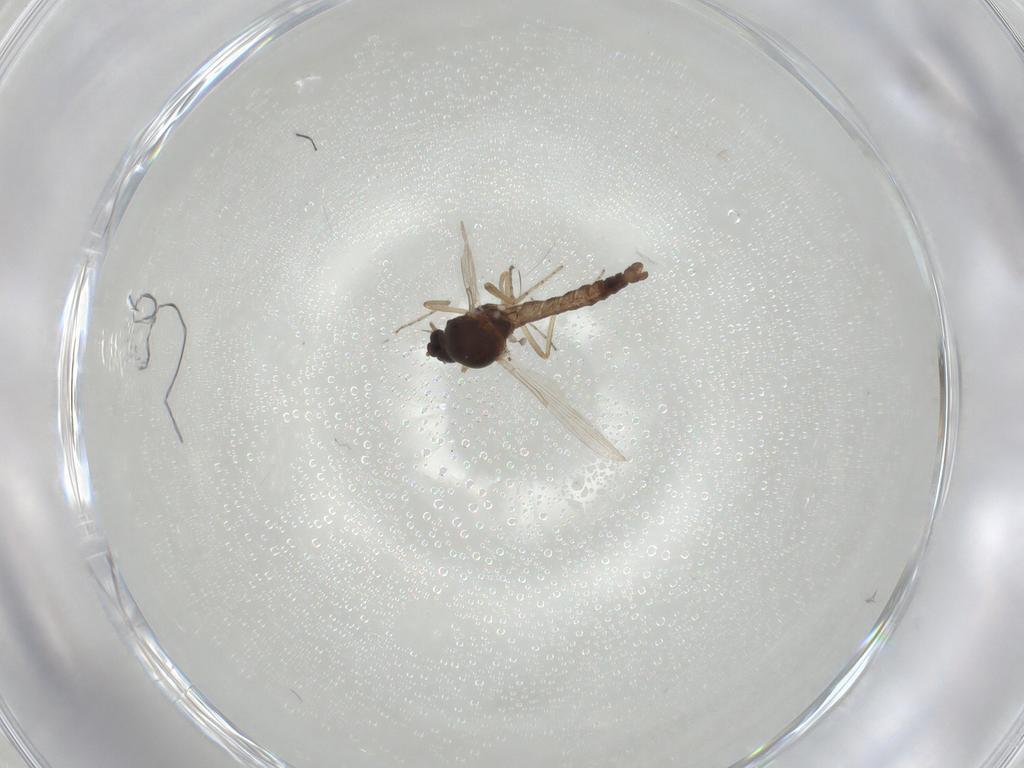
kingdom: Animalia
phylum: Arthropoda
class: Insecta
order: Diptera
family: Ceratopogonidae
